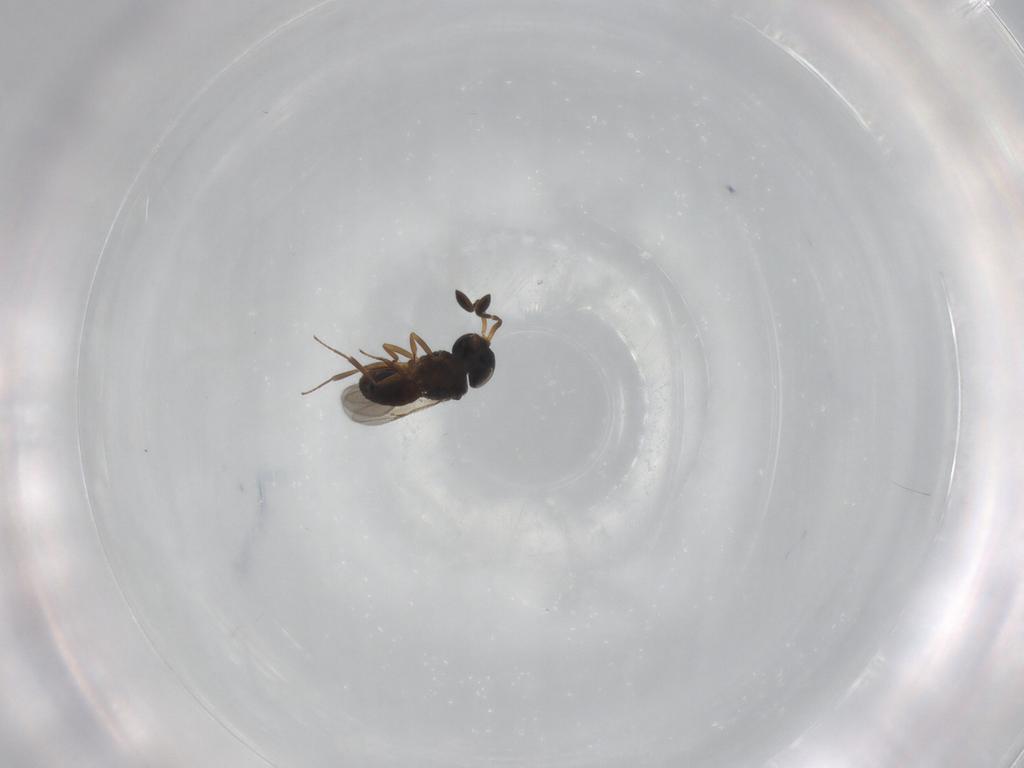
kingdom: Animalia
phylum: Arthropoda
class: Insecta
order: Hymenoptera
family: Scelionidae
